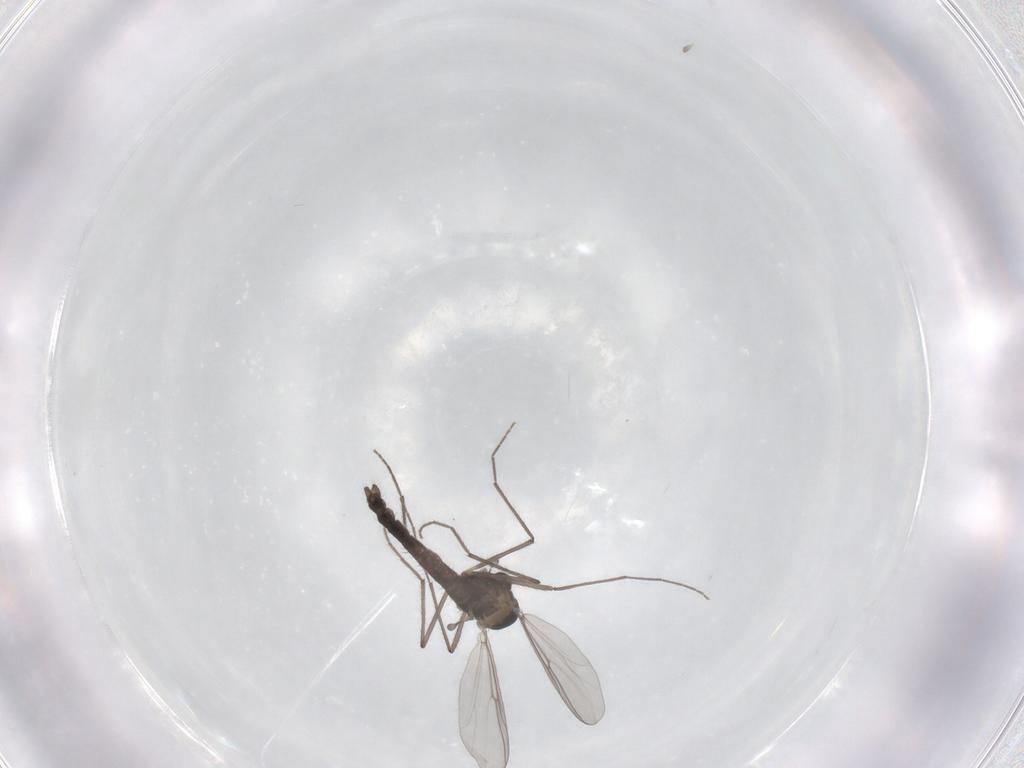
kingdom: Animalia
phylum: Arthropoda
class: Insecta
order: Diptera
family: Chironomidae
